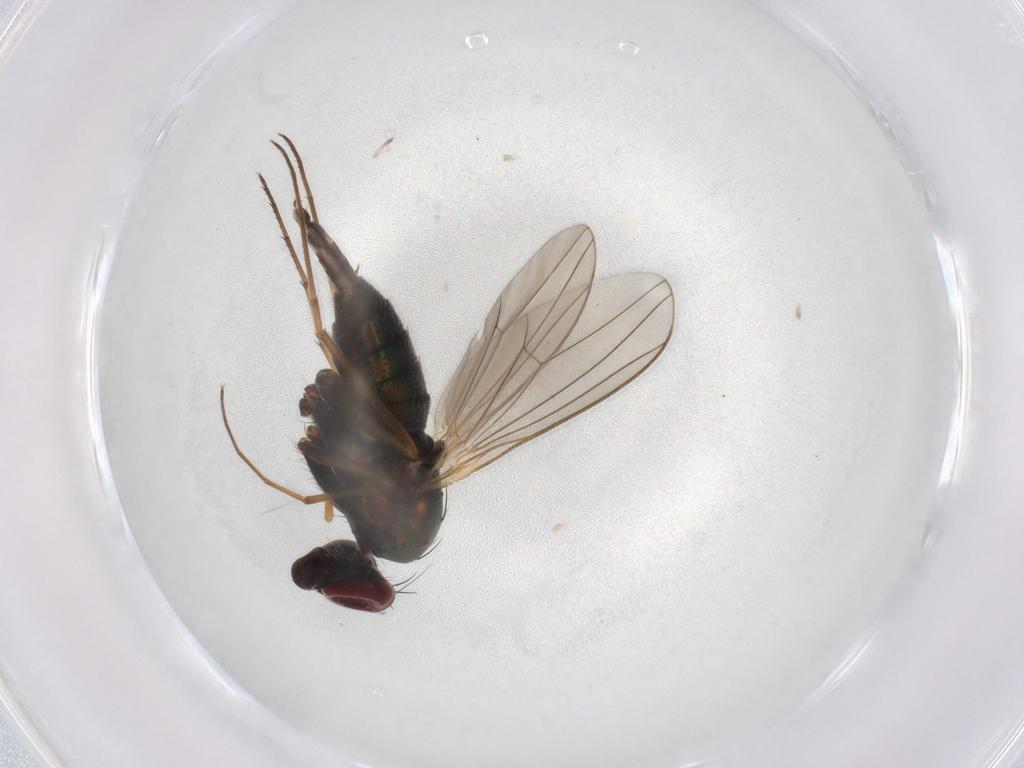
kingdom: Animalia
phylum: Arthropoda
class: Insecta
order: Diptera
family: Dolichopodidae
